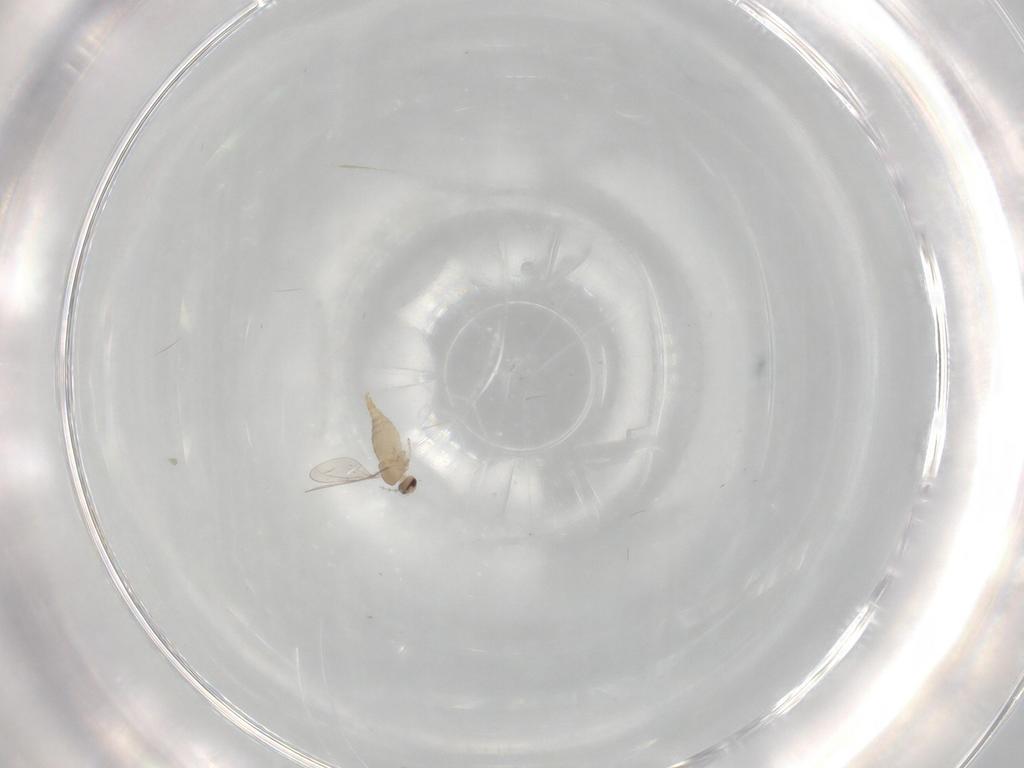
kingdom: Animalia
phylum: Arthropoda
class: Insecta
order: Diptera
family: Cecidomyiidae
